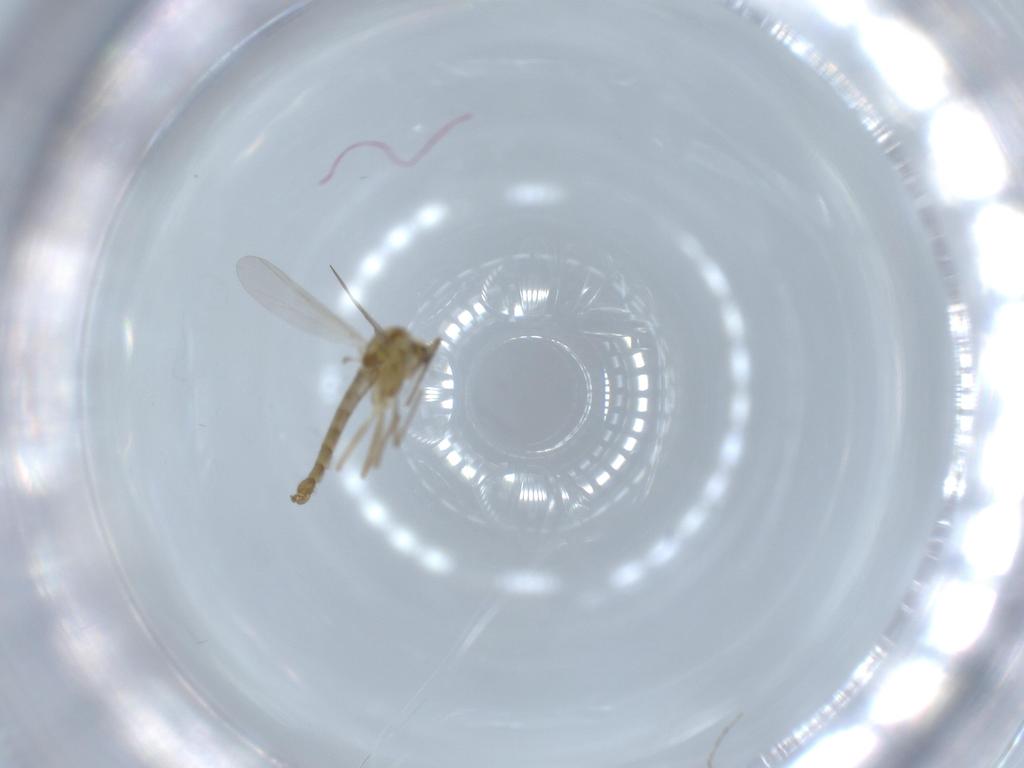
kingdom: Animalia
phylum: Arthropoda
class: Insecta
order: Diptera
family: Chironomidae
